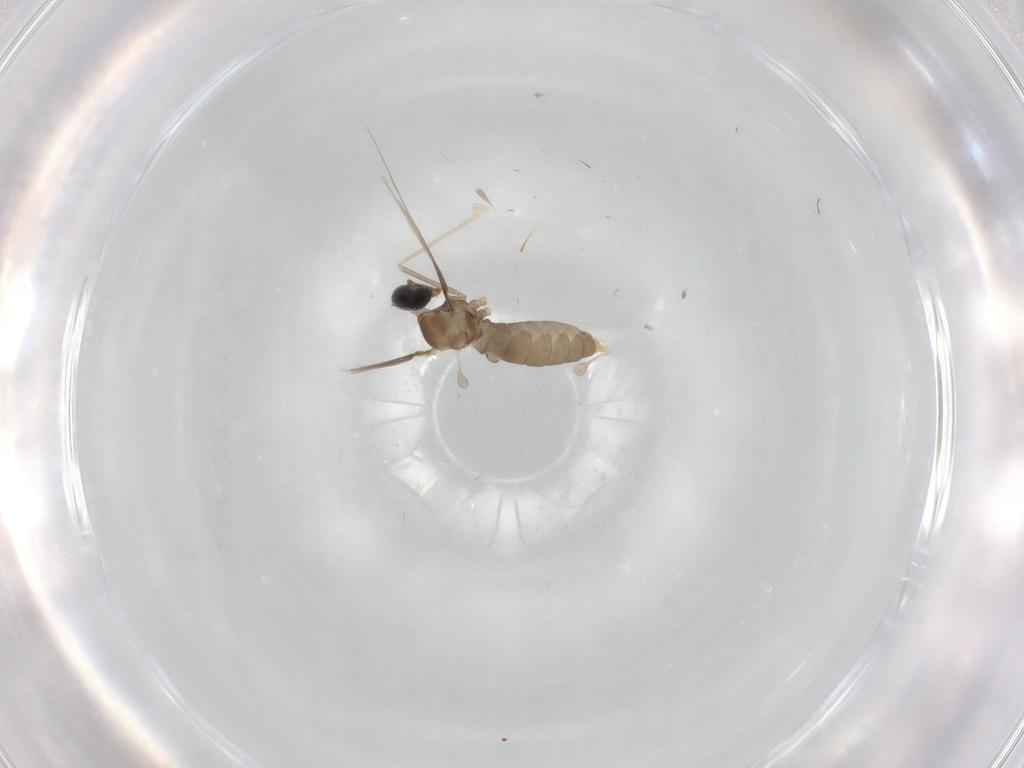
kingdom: Animalia
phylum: Arthropoda
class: Insecta
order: Diptera
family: Cecidomyiidae
